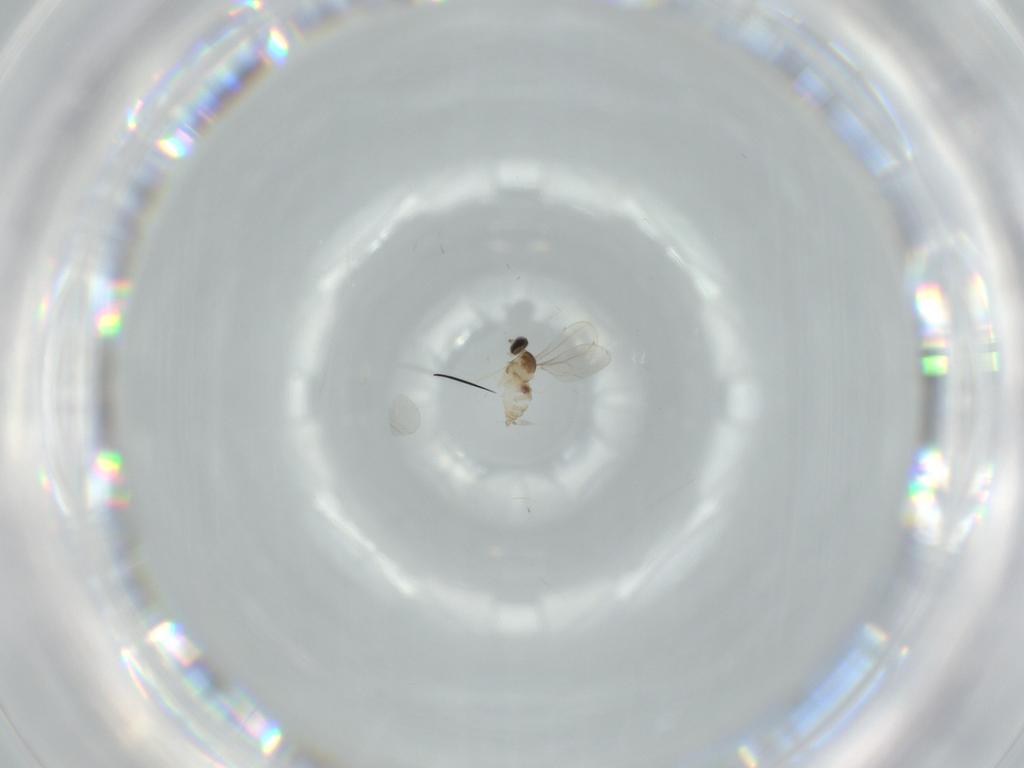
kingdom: Animalia
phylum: Arthropoda
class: Insecta
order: Diptera
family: Cecidomyiidae
